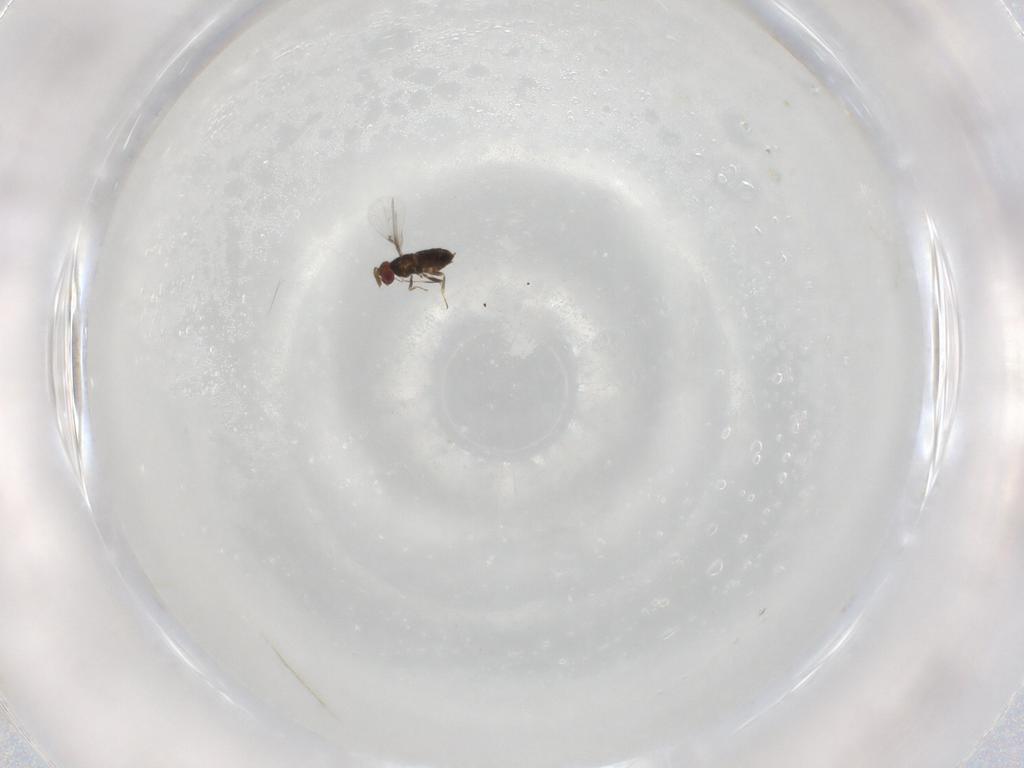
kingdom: Animalia
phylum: Arthropoda
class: Insecta
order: Hymenoptera
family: Agaonidae
